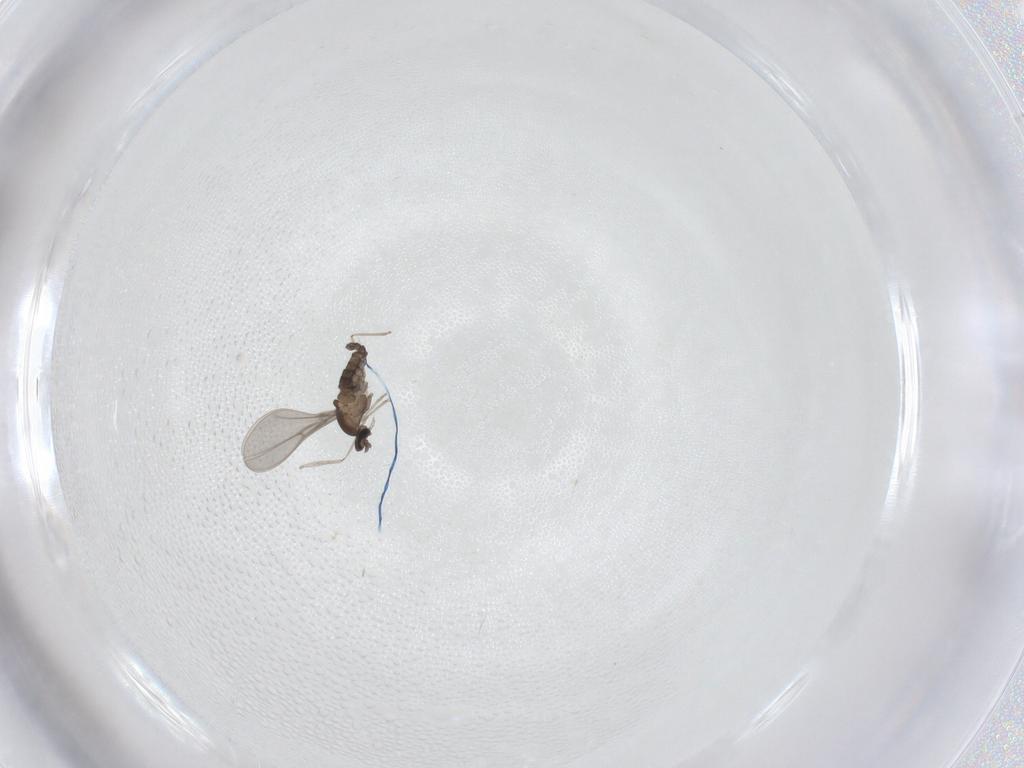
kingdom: Animalia
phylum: Arthropoda
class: Insecta
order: Diptera
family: Cecidomyiidae
